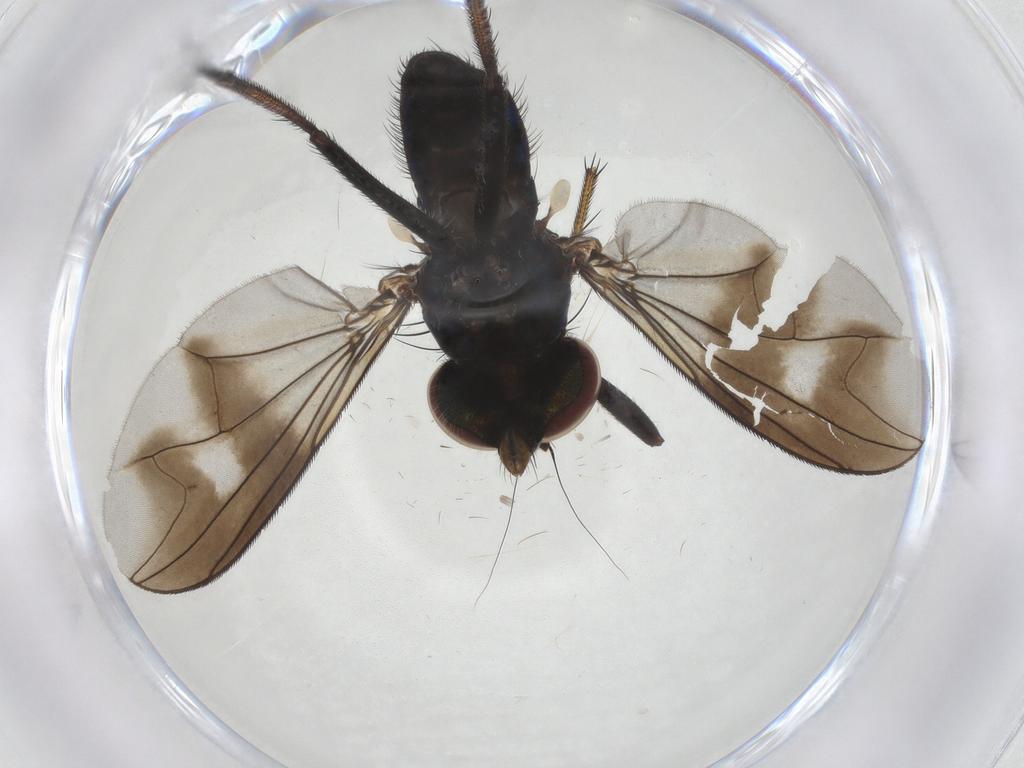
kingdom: Animalia
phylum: Arthropoda
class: Insecta
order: Diptera
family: Dolichopodidae
